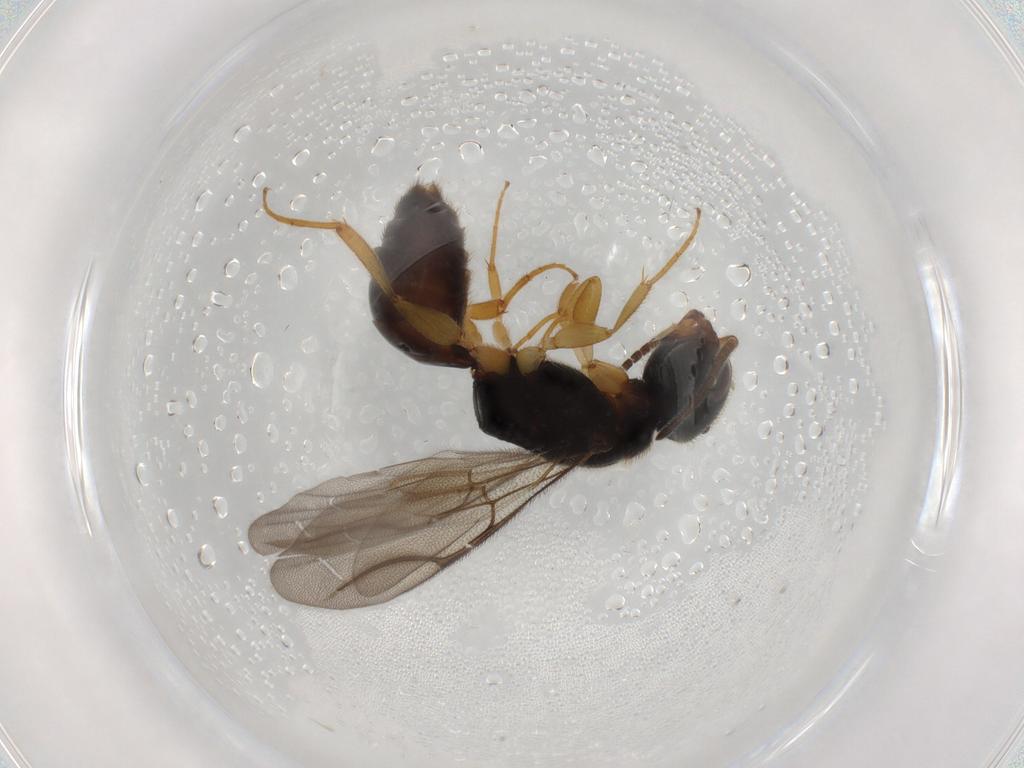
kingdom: Animalia
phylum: Arthropoda
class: Insecta
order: Hymenoptera
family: Bethylidae
